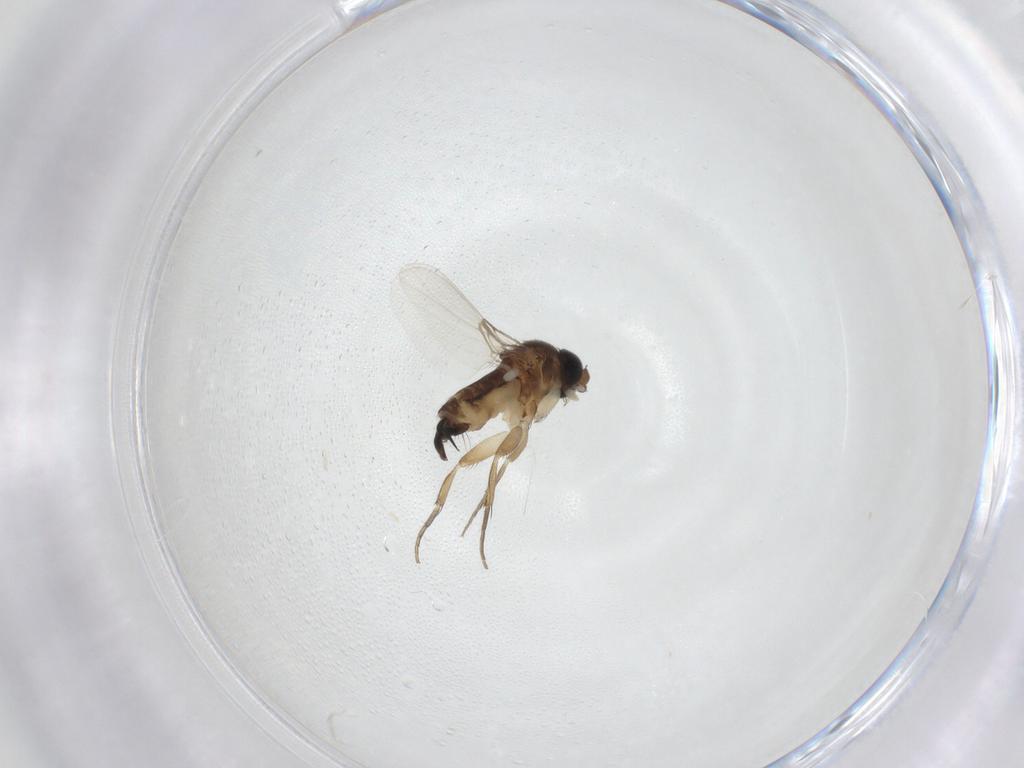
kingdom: Animalia
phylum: Arthropoda
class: Insecta
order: Diptera
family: Phoridae
